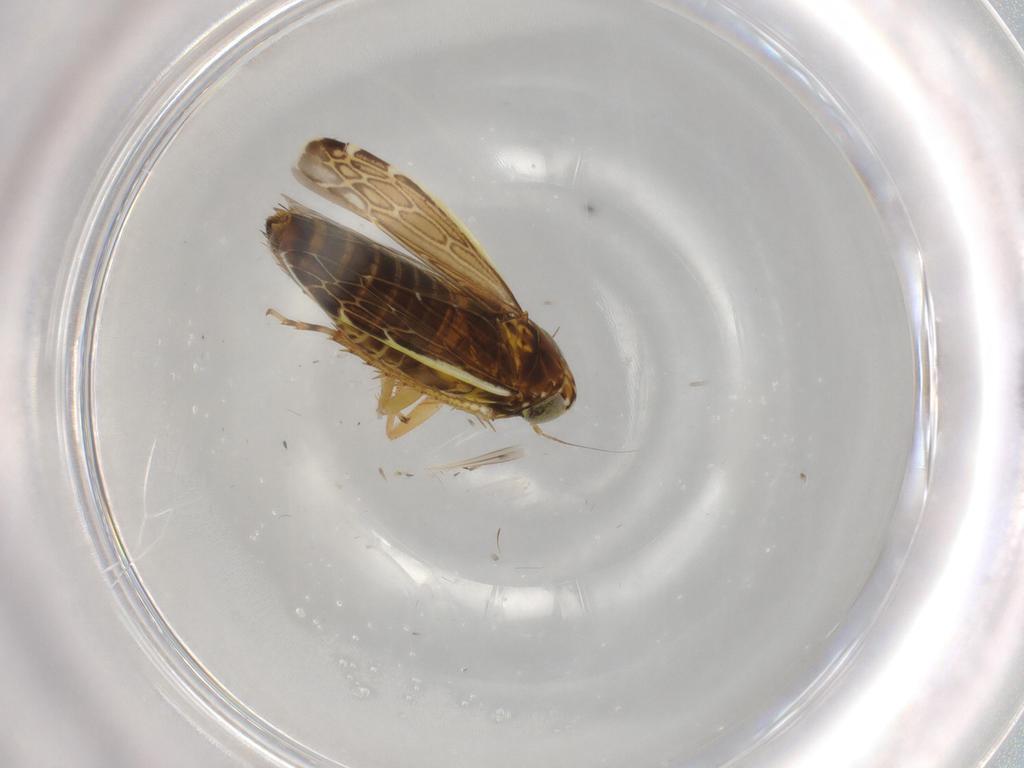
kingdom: Animalia
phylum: Arthropoda
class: Insecta
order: Hemiptera
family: Cicadellidae
